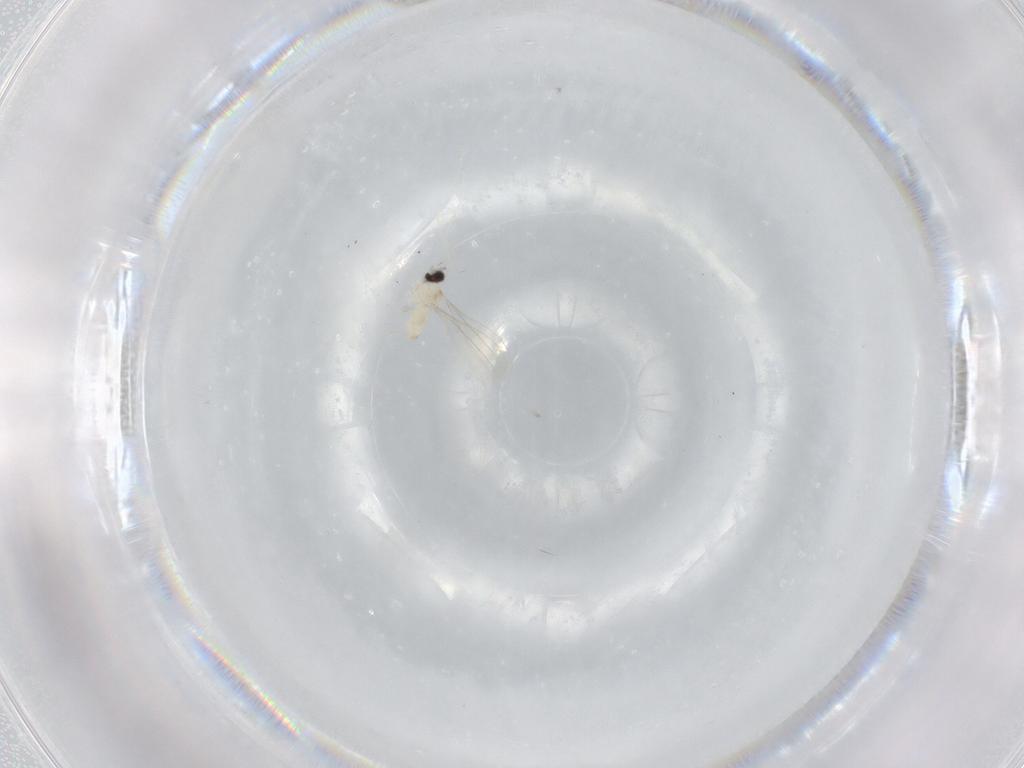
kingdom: Animalia
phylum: Arthropoda
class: Insecta
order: Diptera
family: Cecidomyiidae
